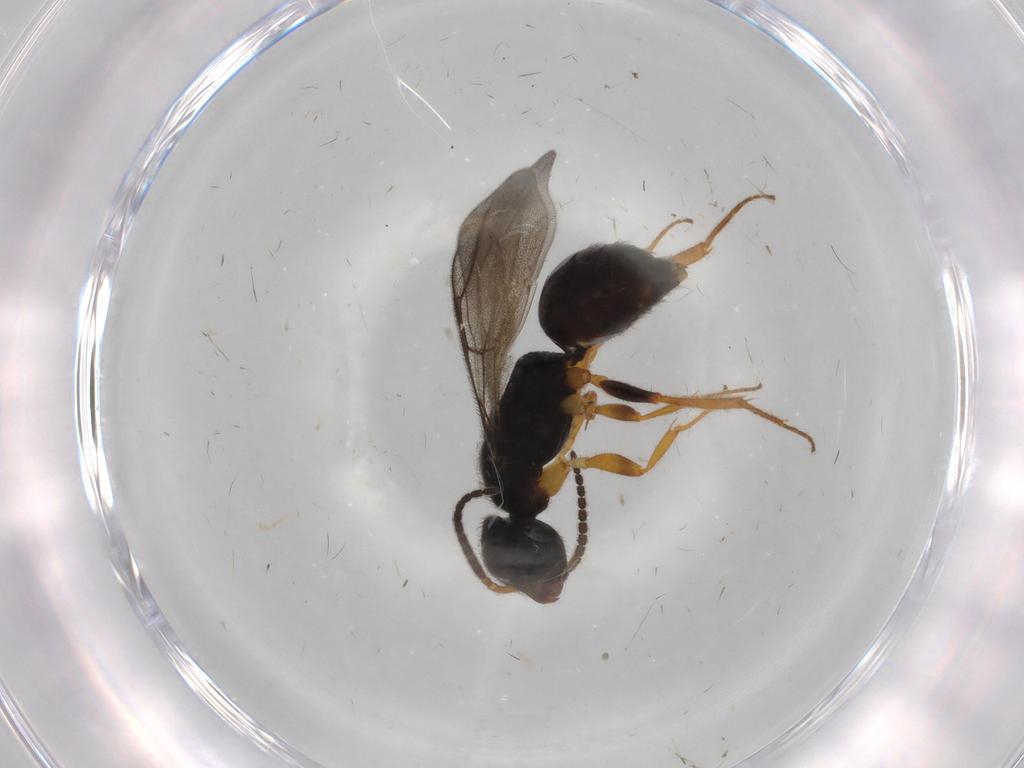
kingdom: Animalia
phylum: Arthropoda
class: Insecta
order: Hymenoptera
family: Bethylidae
